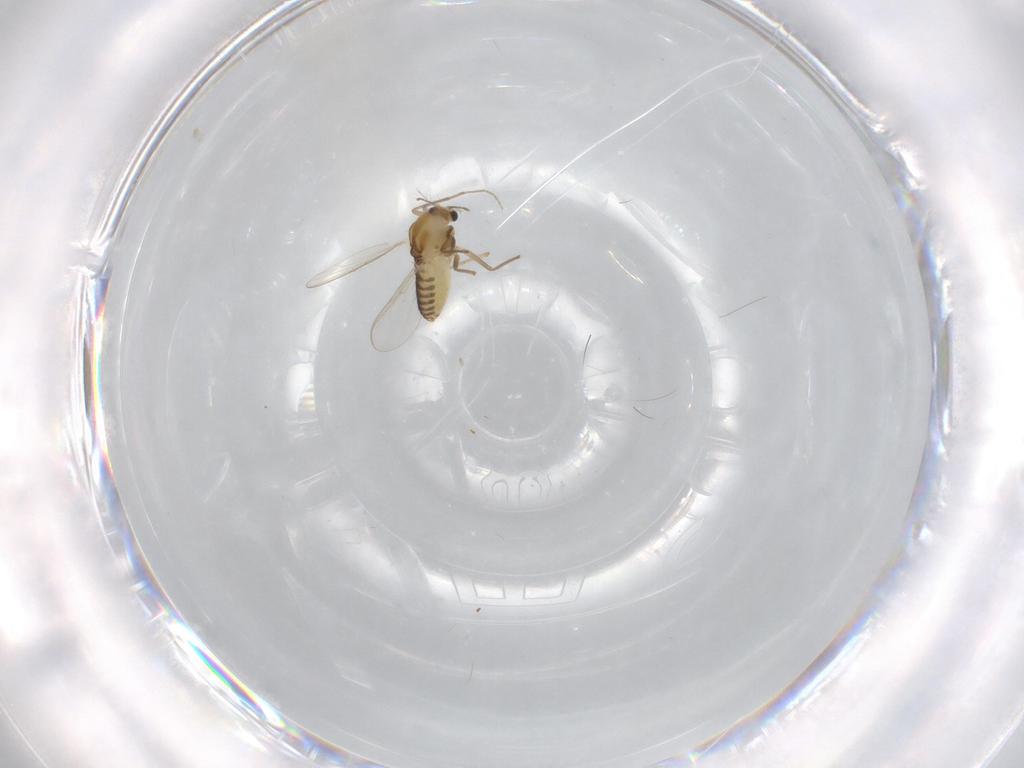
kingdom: Animalia
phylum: Arthropoda
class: Insecta
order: Diptera
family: Chironomidae
